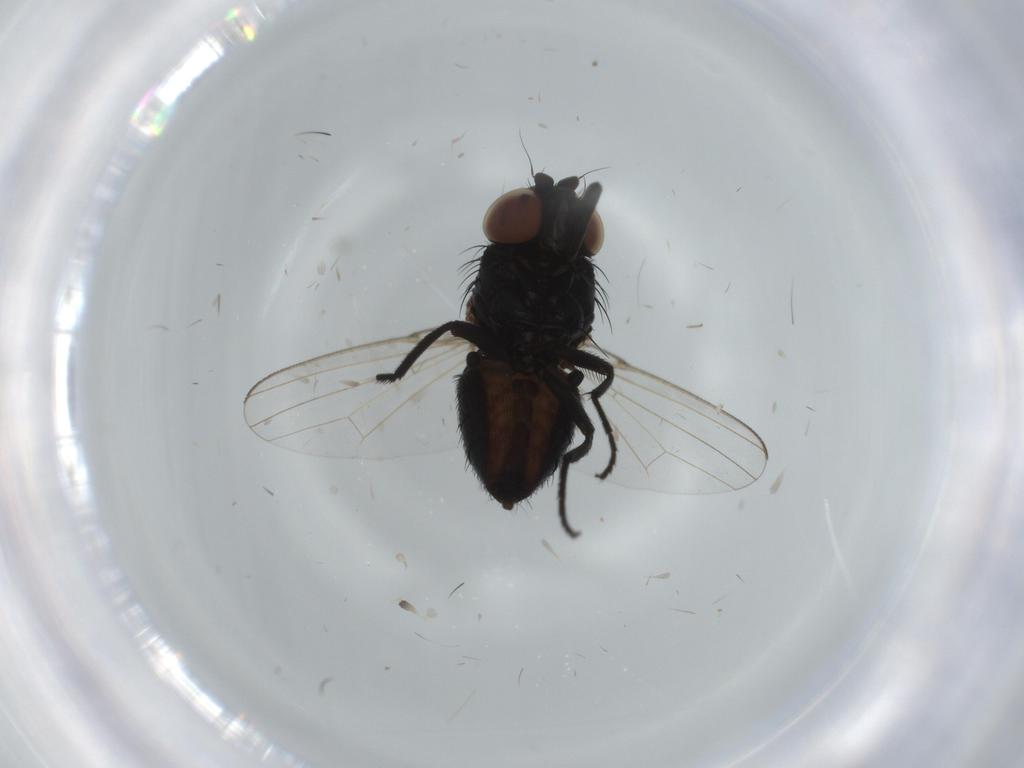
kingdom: Animalia
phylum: Arthropoda
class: Insecta
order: Diptera
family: Milichiidae
